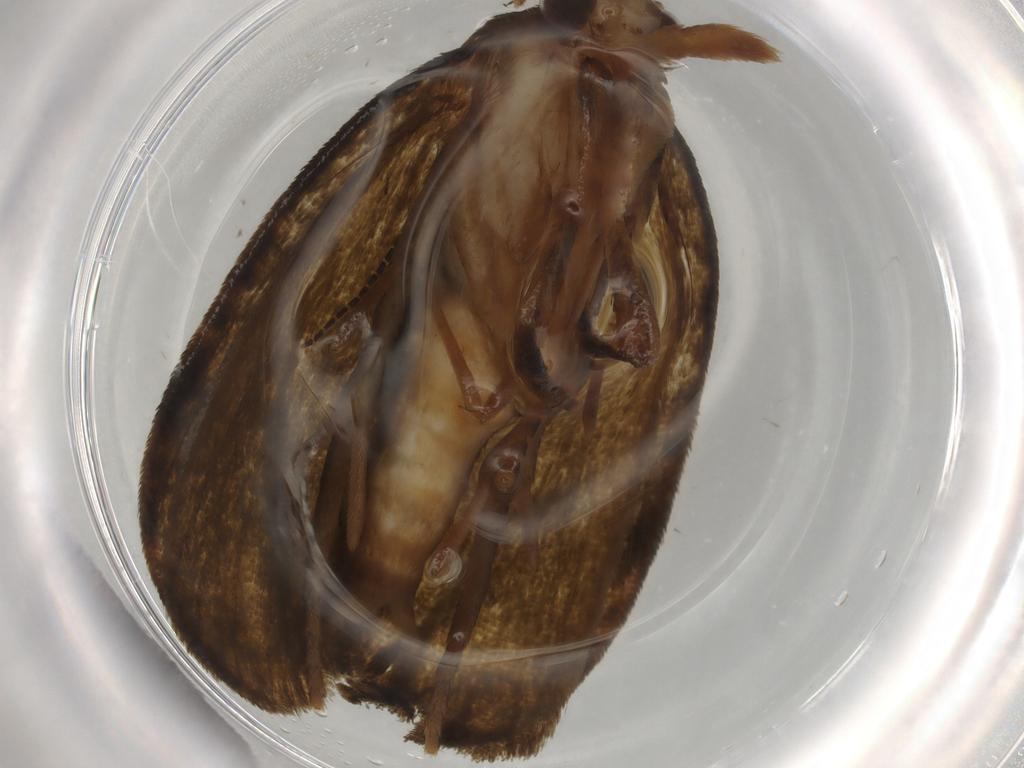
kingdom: Animalia
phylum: Arthropoda
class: Insecta
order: Lepidoptera
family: Geometridae
